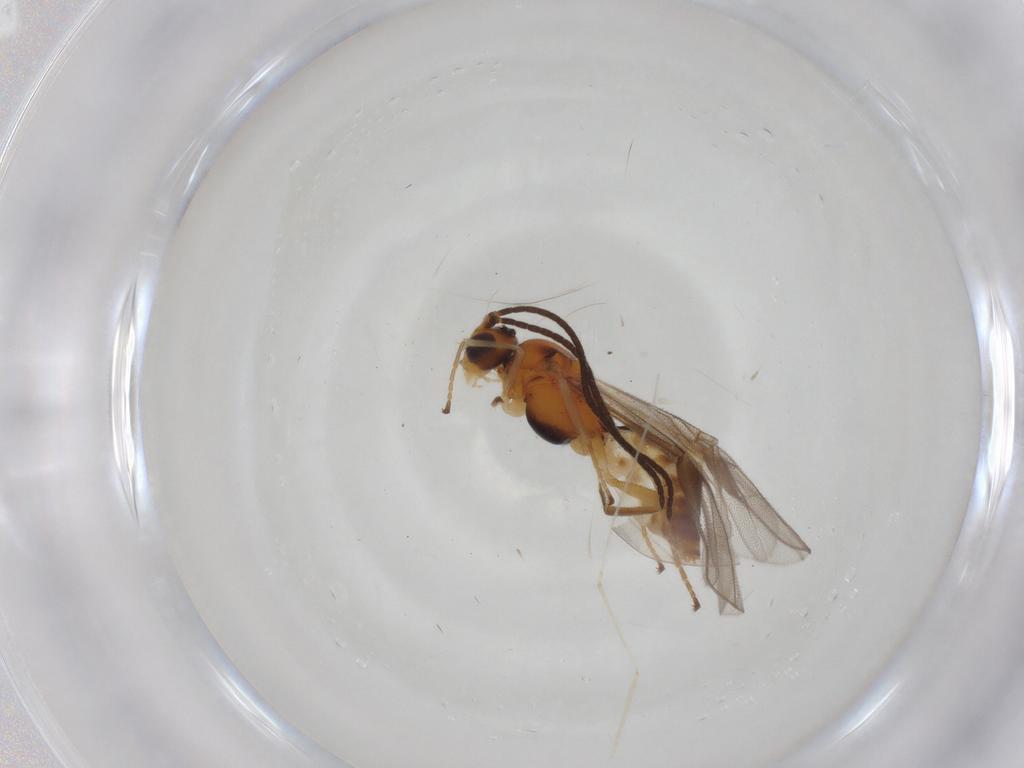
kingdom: Animalia
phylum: Arthropoda
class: Insecta
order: Hymenoptera
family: Braconidae
